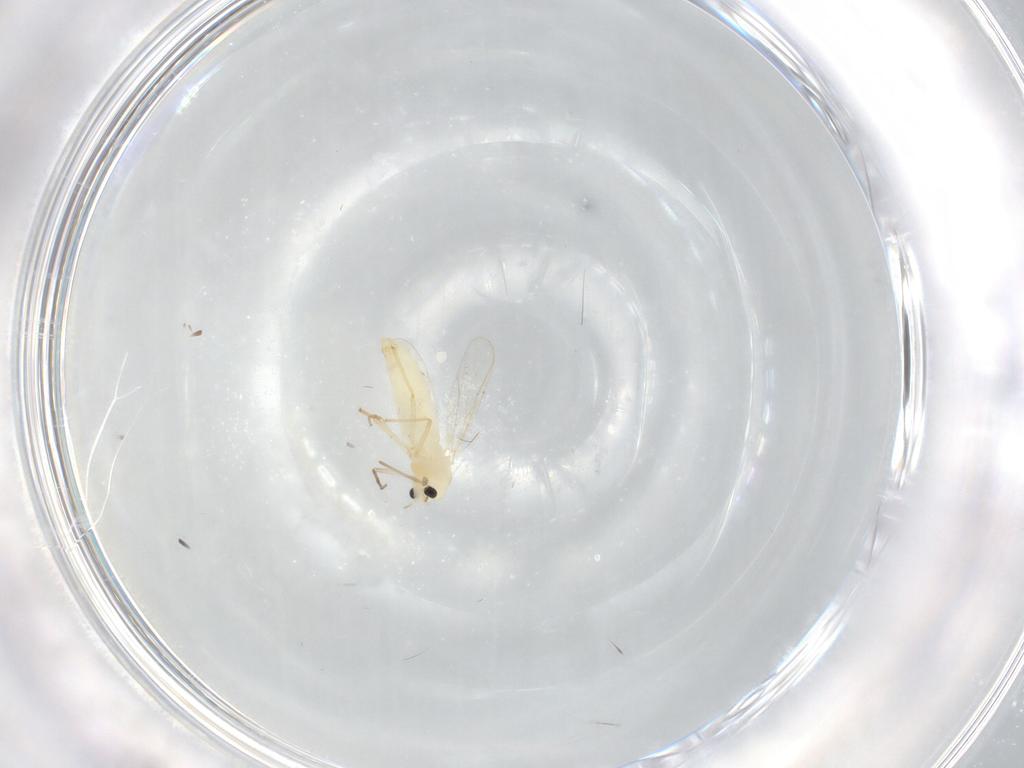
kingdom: Animalia
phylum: Arthropoda
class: Insecta
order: Diptera
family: Chironomidae
